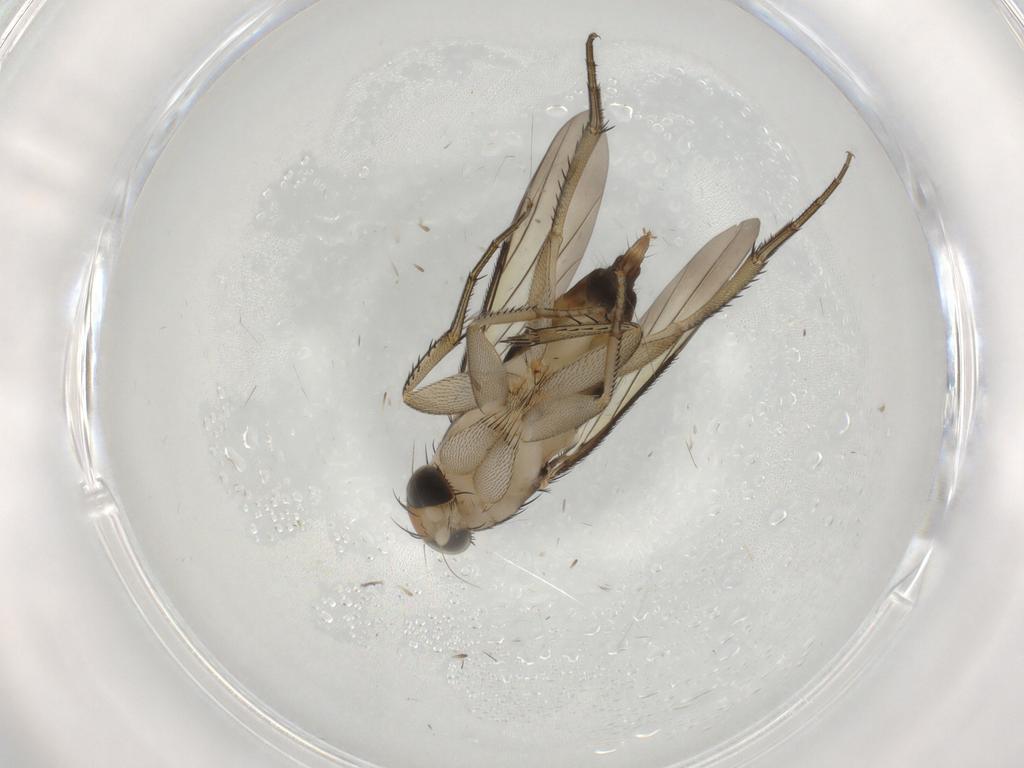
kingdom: Animalia
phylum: Arthropoda
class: Insecta
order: Diptera
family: Phoridae
